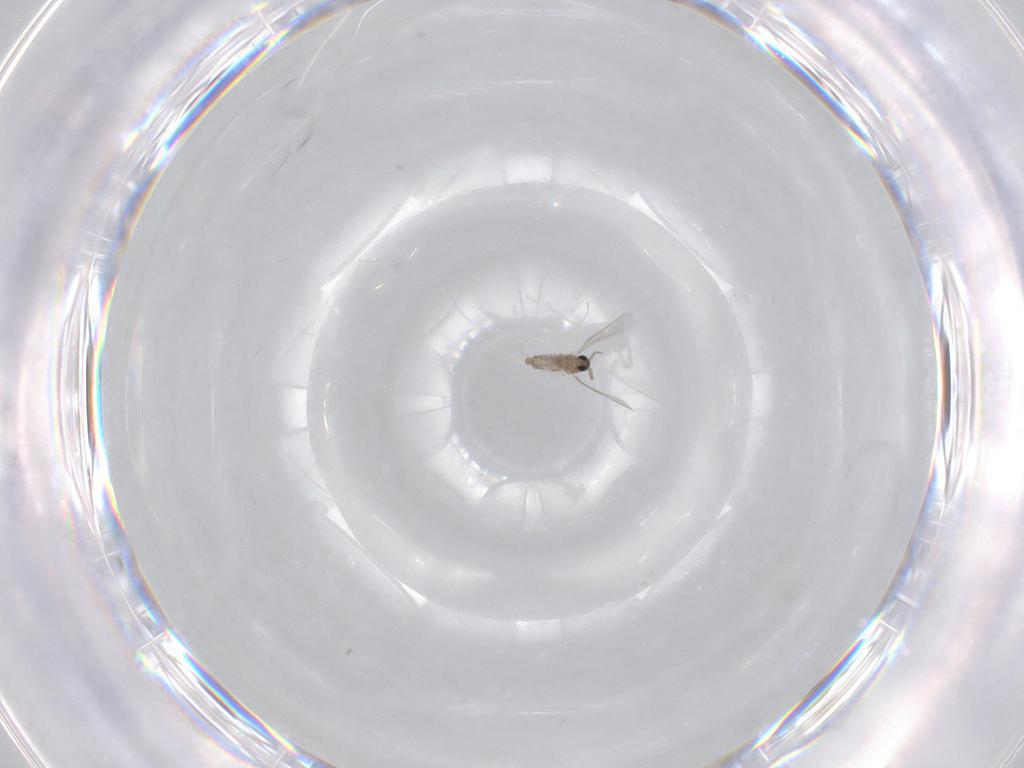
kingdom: Animalia
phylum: Arthropoda
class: Insecta
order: Diptera
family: Cecidomyiidae
